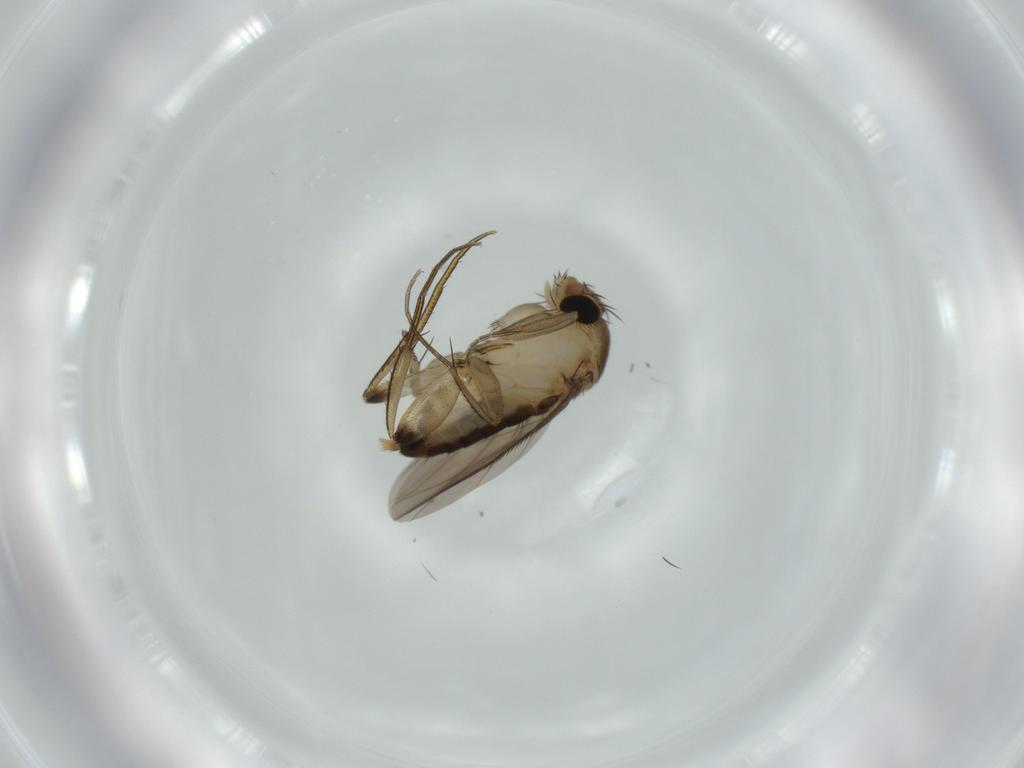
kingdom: Animalia
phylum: Arthropoda
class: Insecta
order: Diptera
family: Phoridae
